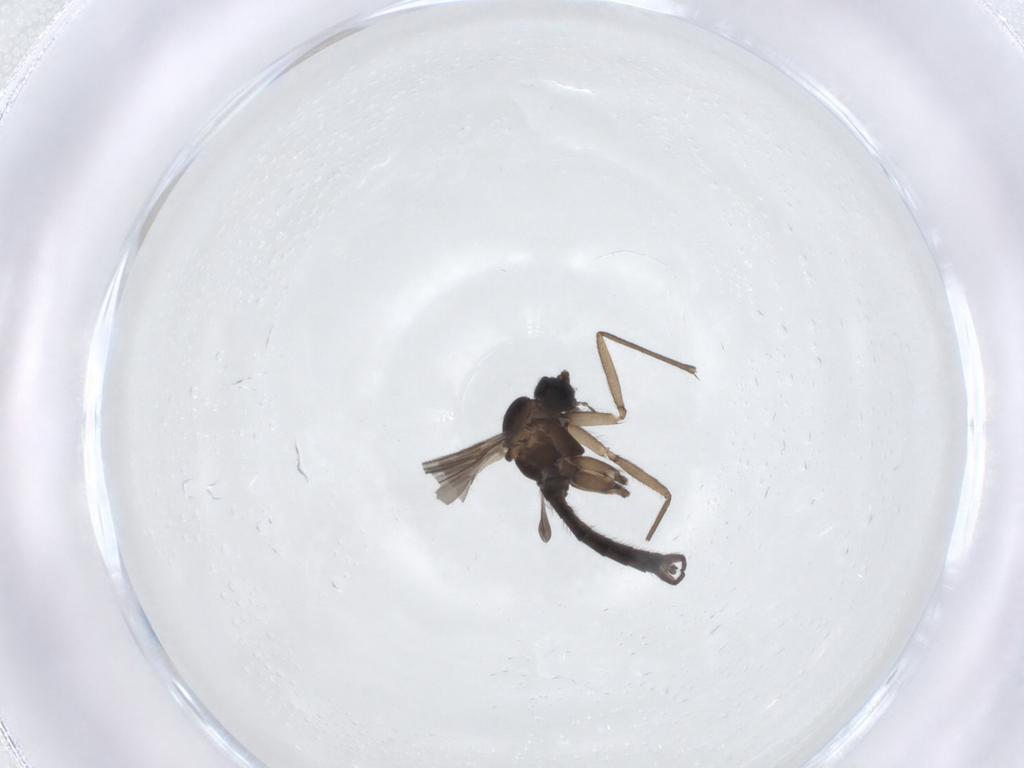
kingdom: Animalia
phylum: Arthropoda
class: Insecta
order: Diptera
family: Sciaridae
